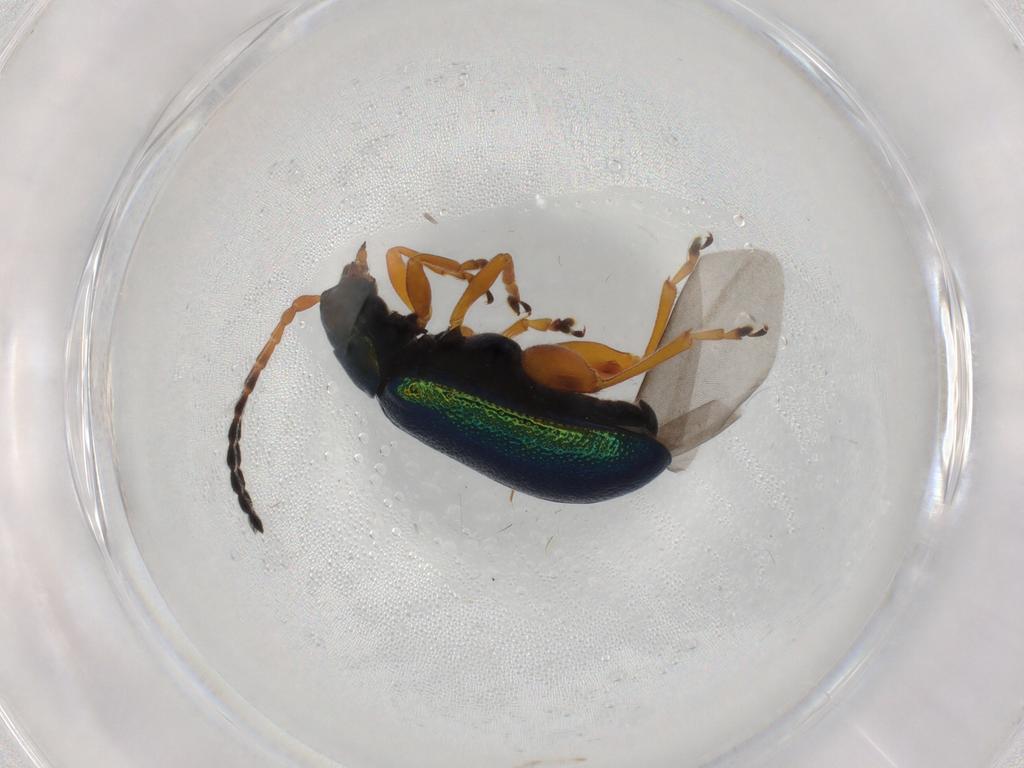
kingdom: Animalia
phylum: Arthropoda
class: Insecta
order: Coleoptera
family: Chrysomelidae
